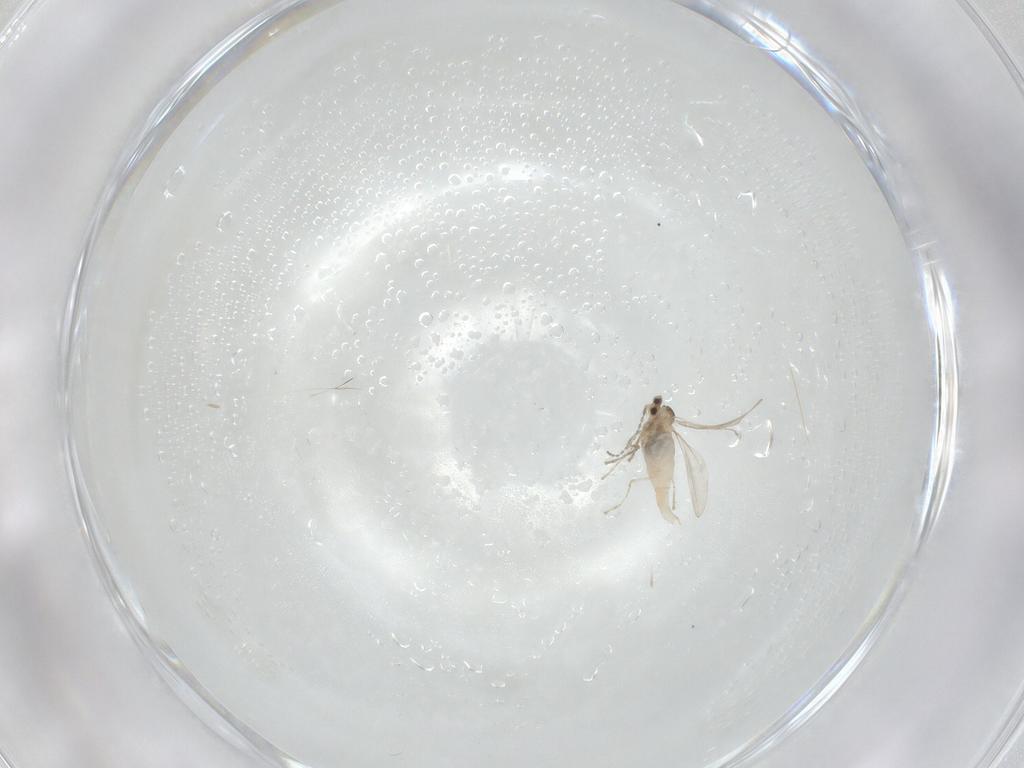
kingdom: Animalia
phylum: Arthropoda
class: Insecta
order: Diptera
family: Cecidomyiidae
